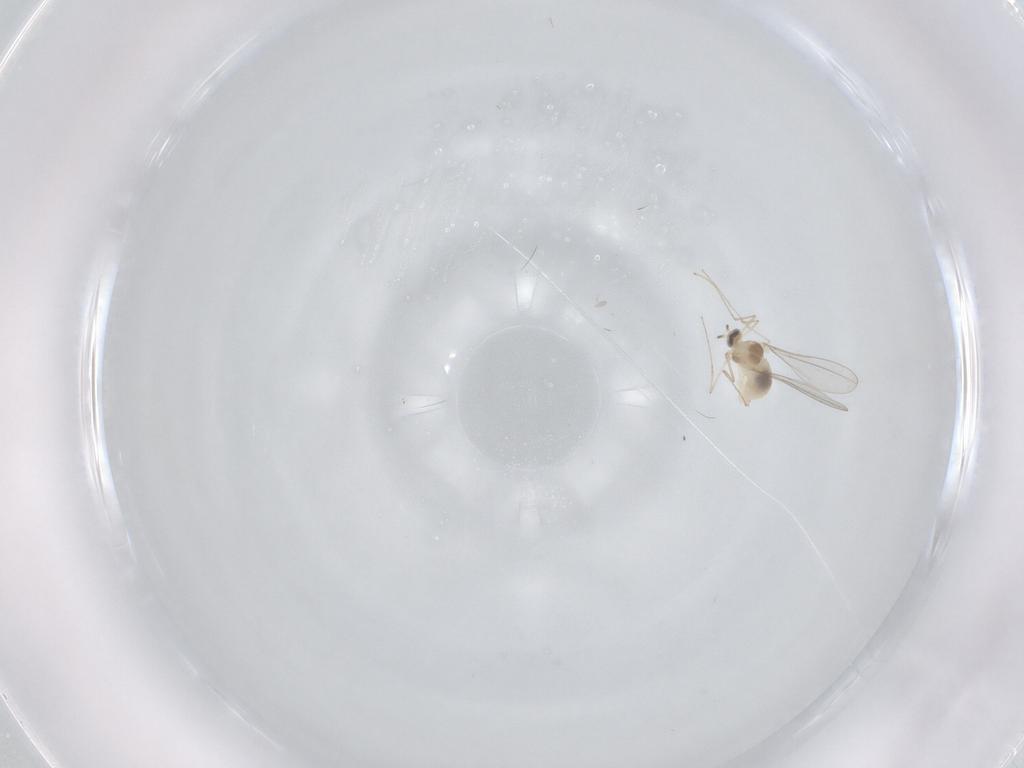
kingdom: Animalia
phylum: Arthropoda
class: Insecta
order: Diptera
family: Cecidomyiidae
